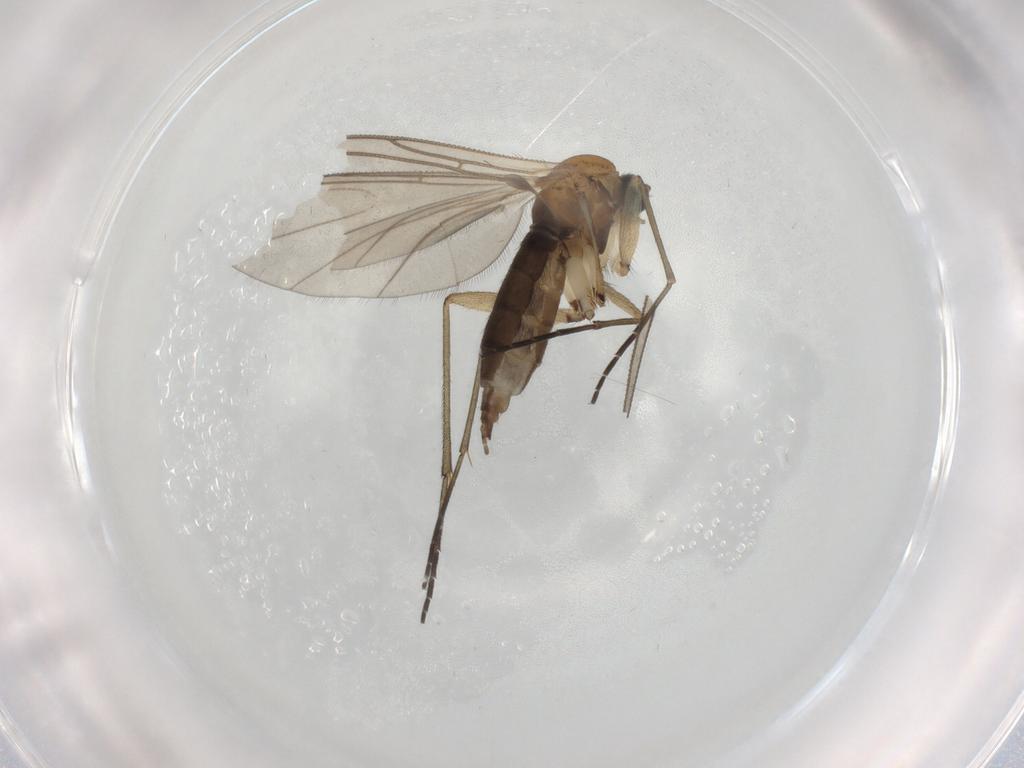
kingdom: Animalia
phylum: Arthropoda
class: Insecta
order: Diptera
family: Sciaridae
